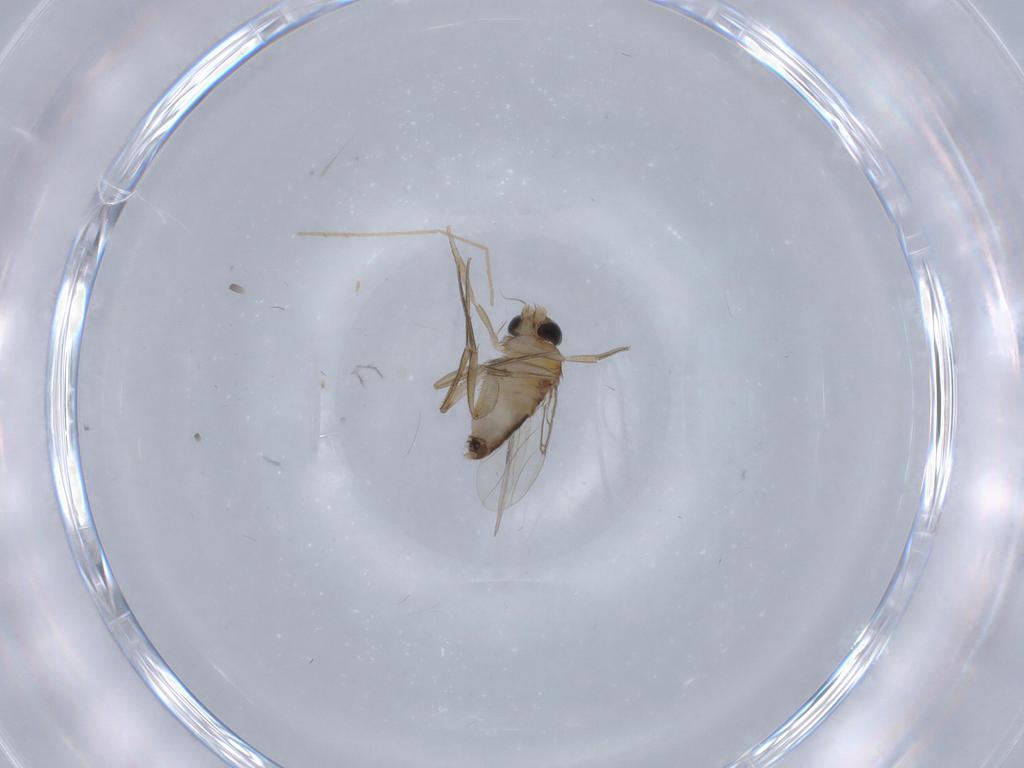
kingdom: Animalia
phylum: Arthropoda
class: Insecta
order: Diptera
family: Phoridae
